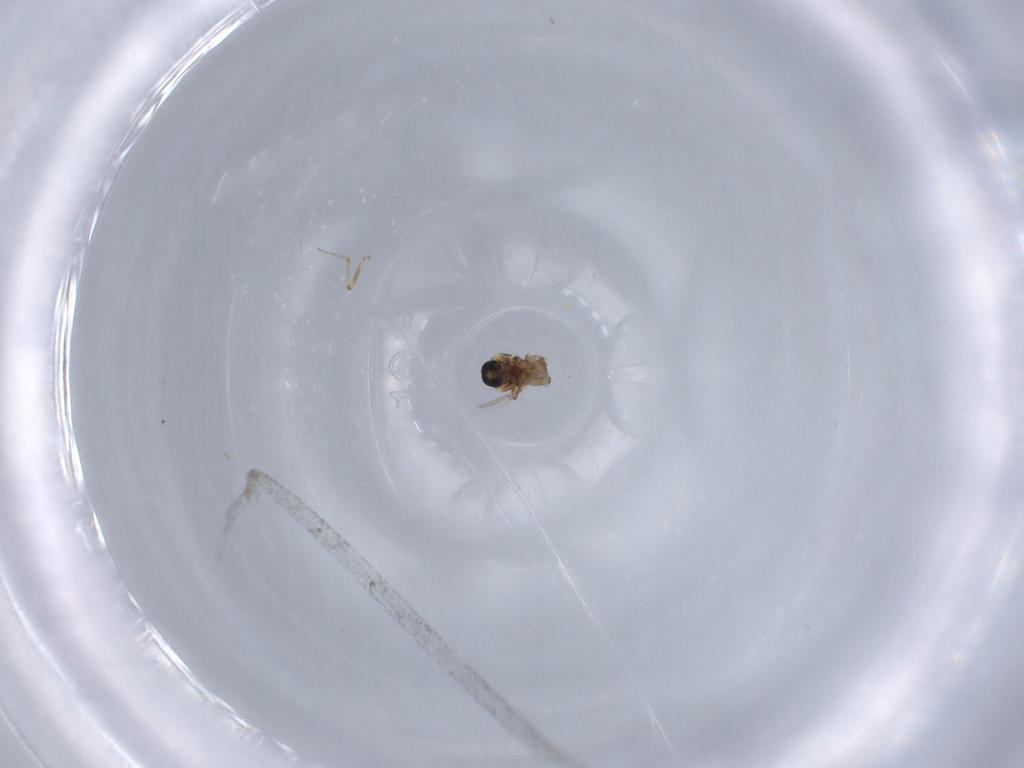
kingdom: Animalia
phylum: Arthropoda
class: Insecta
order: Diptera
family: Ceratopogonidae
